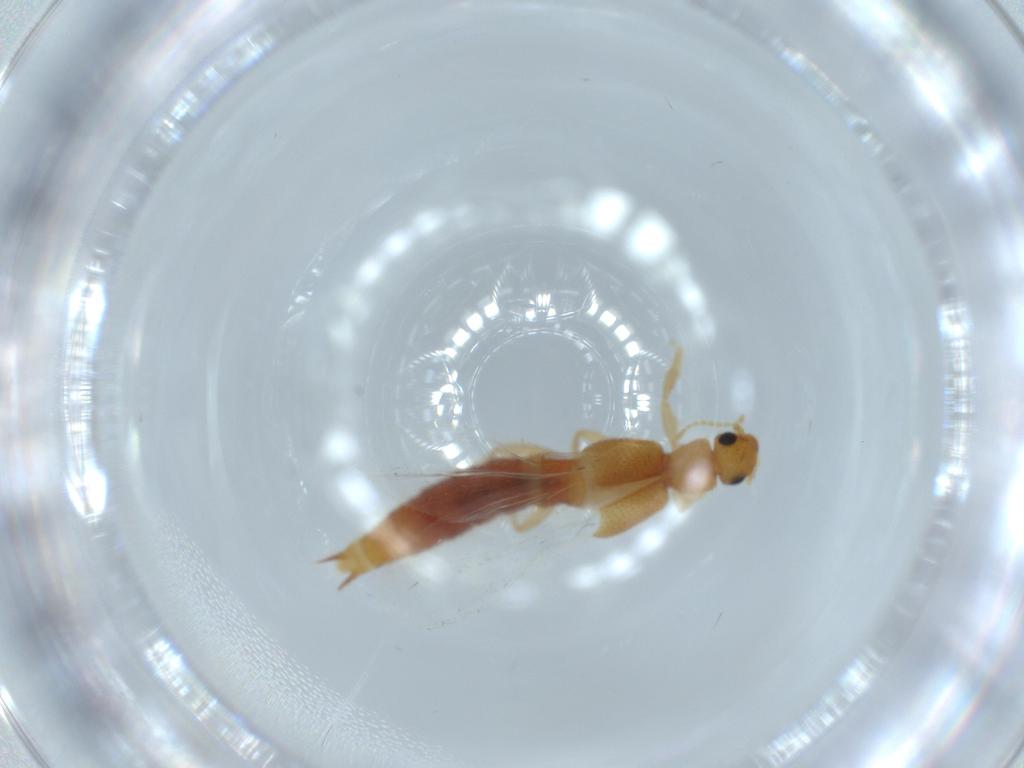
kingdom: Animalia
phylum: Arthropoda
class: Insecta
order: Coleoptera
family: Staphylinidae
